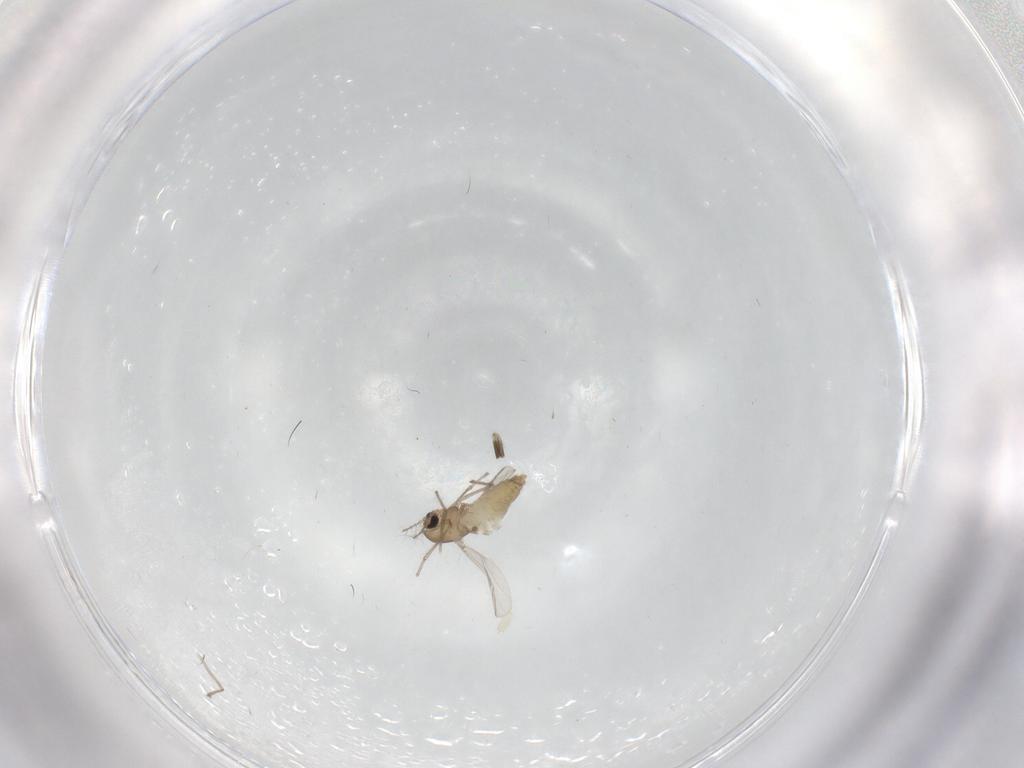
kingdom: Animalia
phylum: Arthropoda
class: Insecta
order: Diptera
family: Chironomidae
